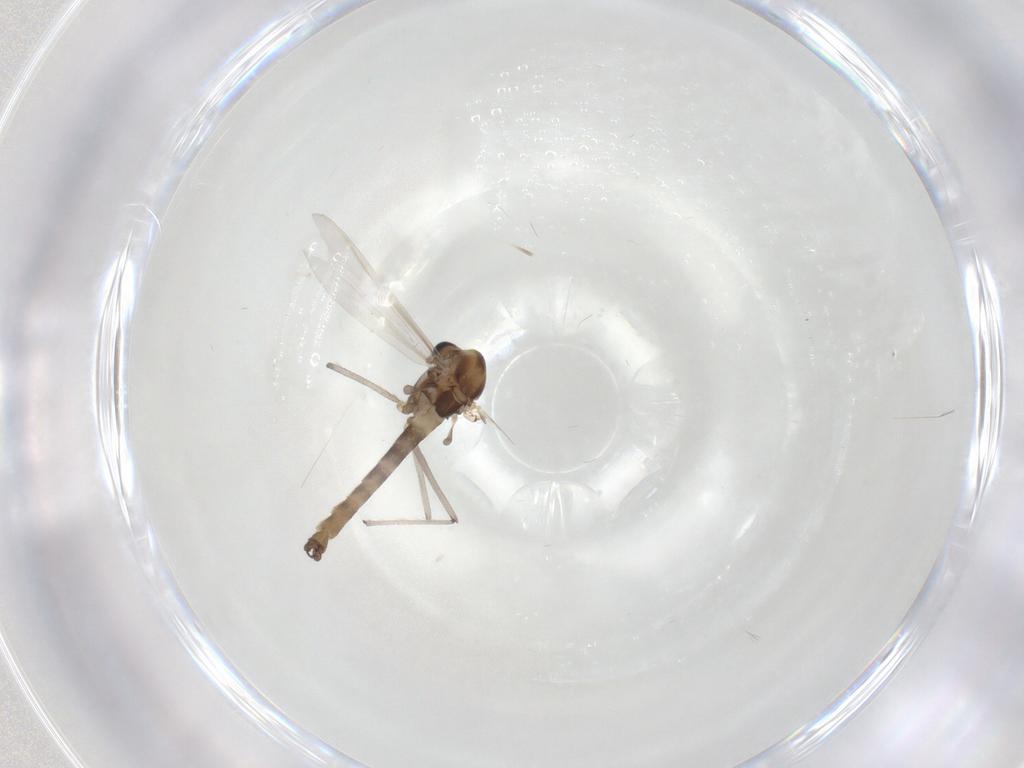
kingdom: Animalia
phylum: Arthropoda
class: Insecta
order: Diptera
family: Chironomidae
